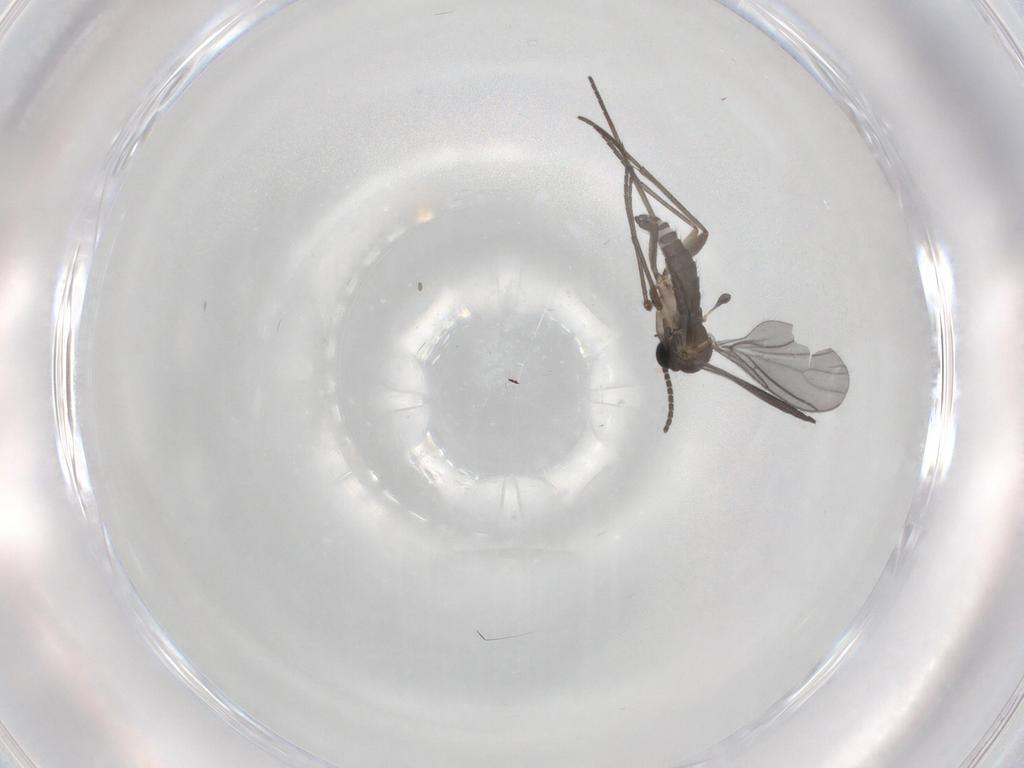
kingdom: Animalia
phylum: Arthropoda
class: Insecta
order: Diptera
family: Sciaridae
